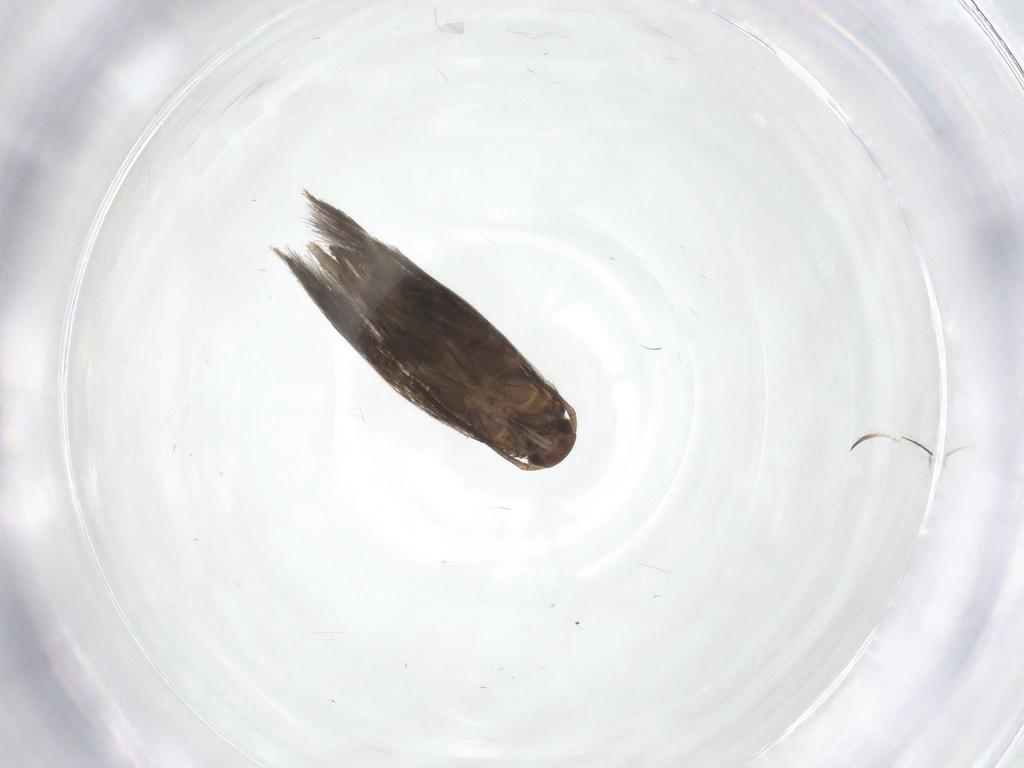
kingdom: Animalia
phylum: Arthropoda
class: Insecta
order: Lepidoptera
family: Elachistidae
